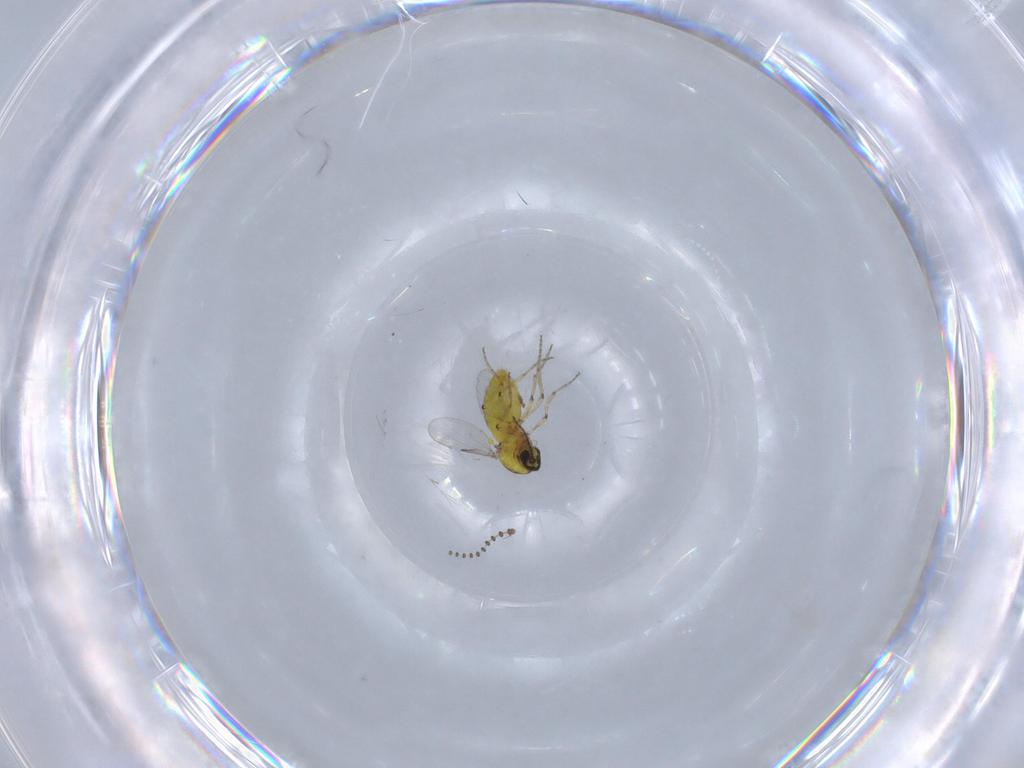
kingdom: Animalia
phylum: Arthropoda
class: Insecta
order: Diptera
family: Ceratopogonidae
